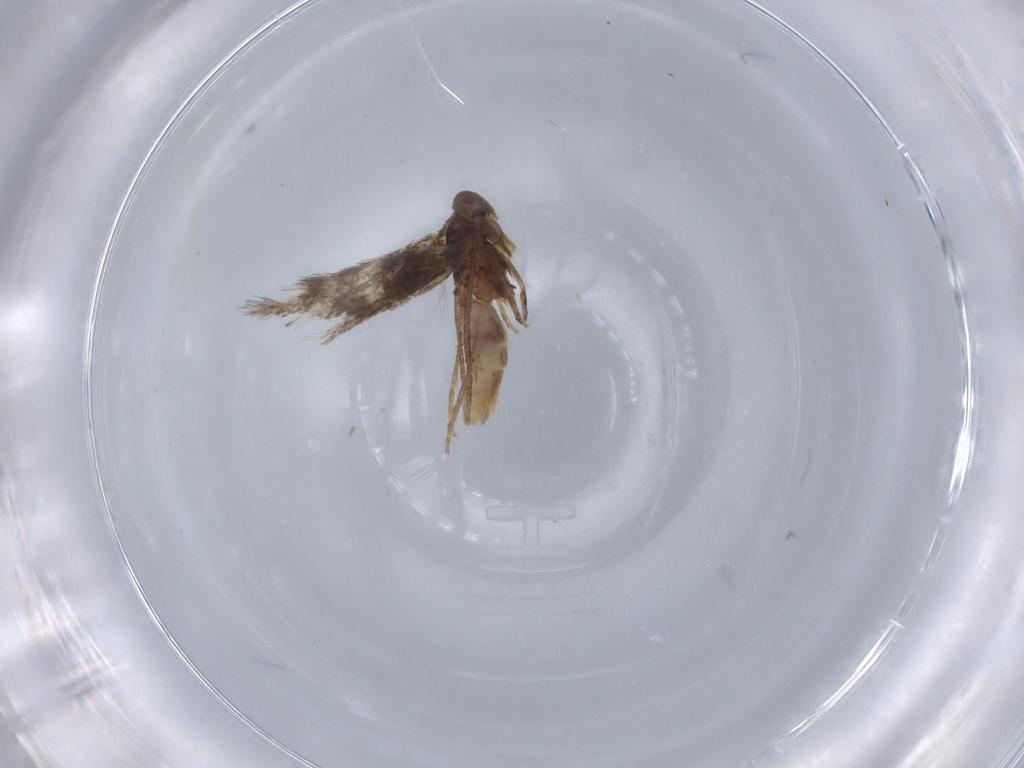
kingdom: Animalia
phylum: Arthropoda
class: Insecta
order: Lepidoptera
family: Elachistidae
